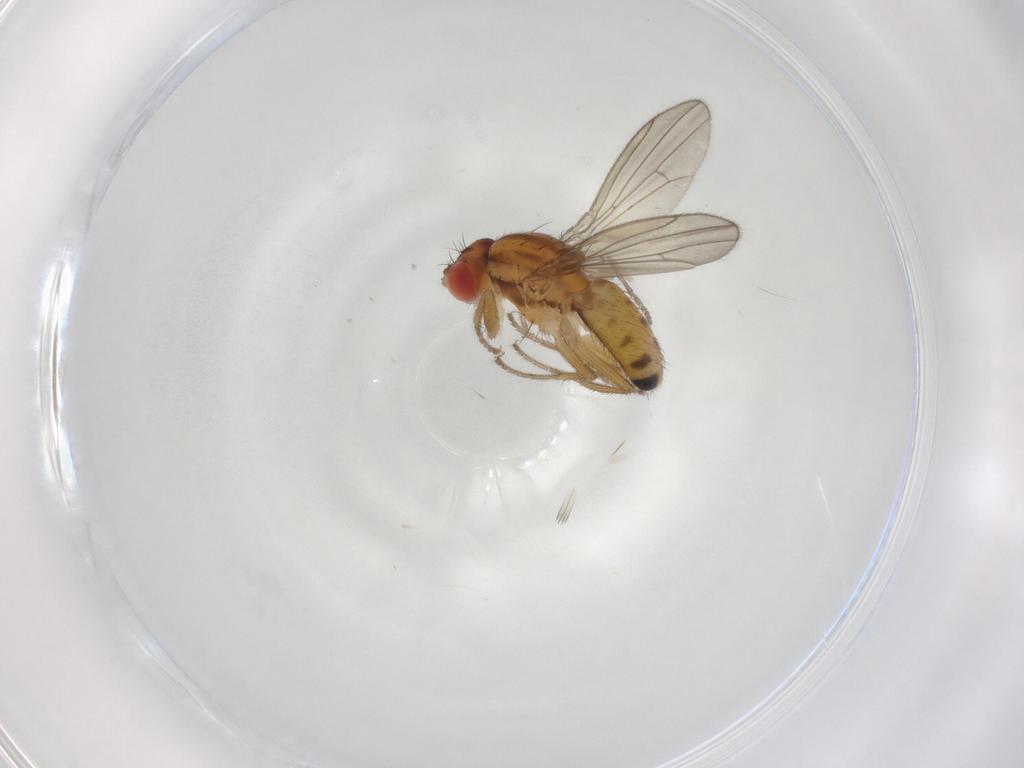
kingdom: Animalia
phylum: Arthropoda
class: Insecta
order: Diptera
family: Drosophilidae
